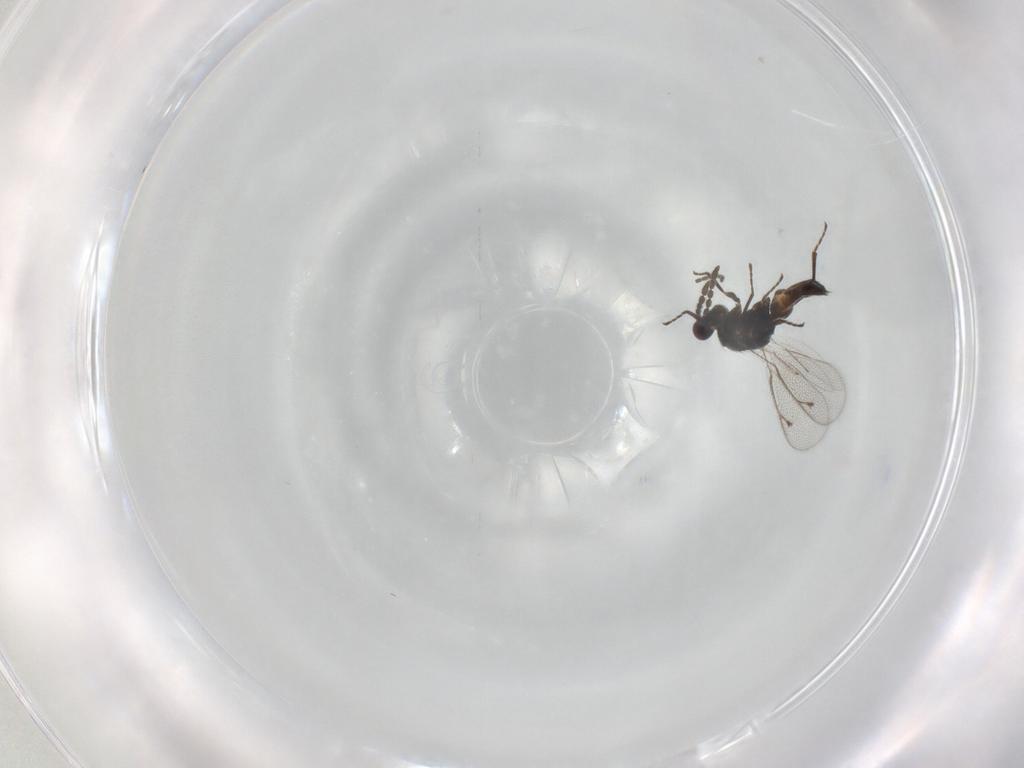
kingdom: Animalia
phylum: Arthropoda
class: Insecta
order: Hymenoptera
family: Eulophidae
